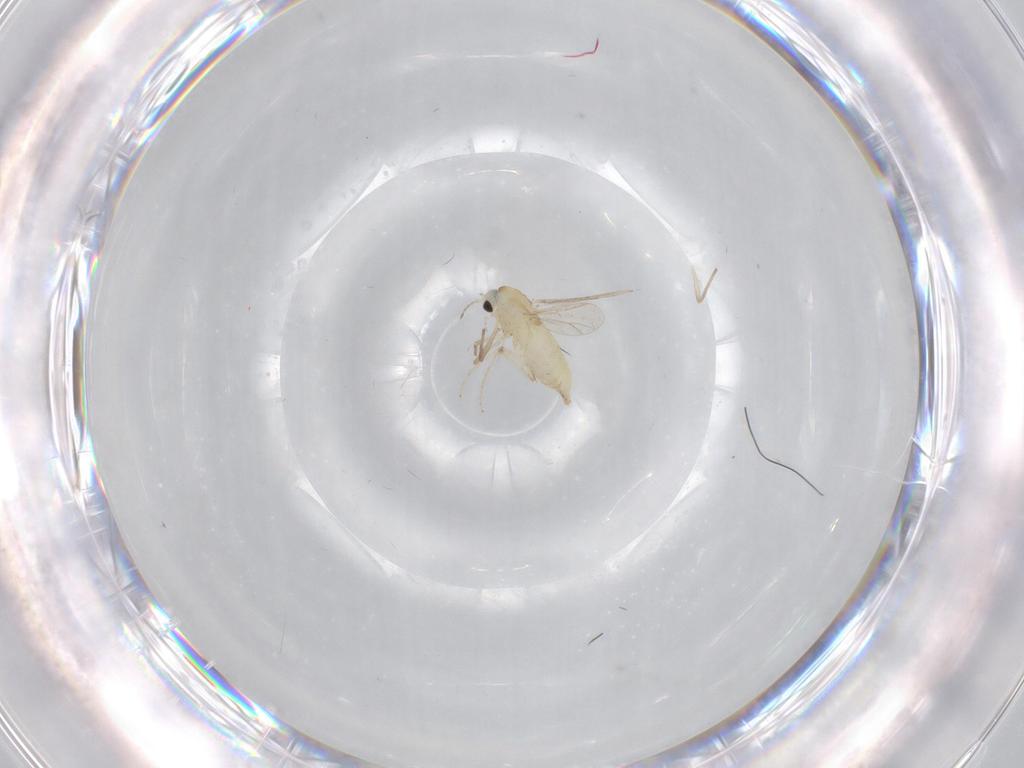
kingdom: Animalia
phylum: Arthropoda
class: Insecta
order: Diptera
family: Chironomidae
